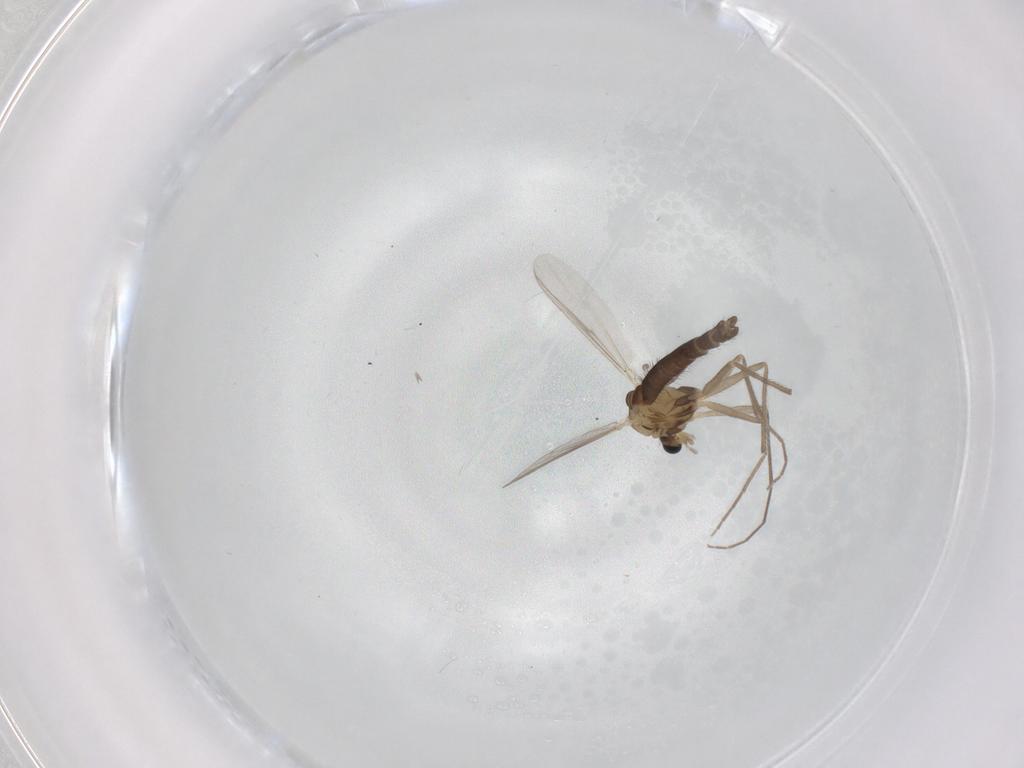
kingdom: Animalia
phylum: Arthropoda
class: Insecta
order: Diptera
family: Chironomidae
